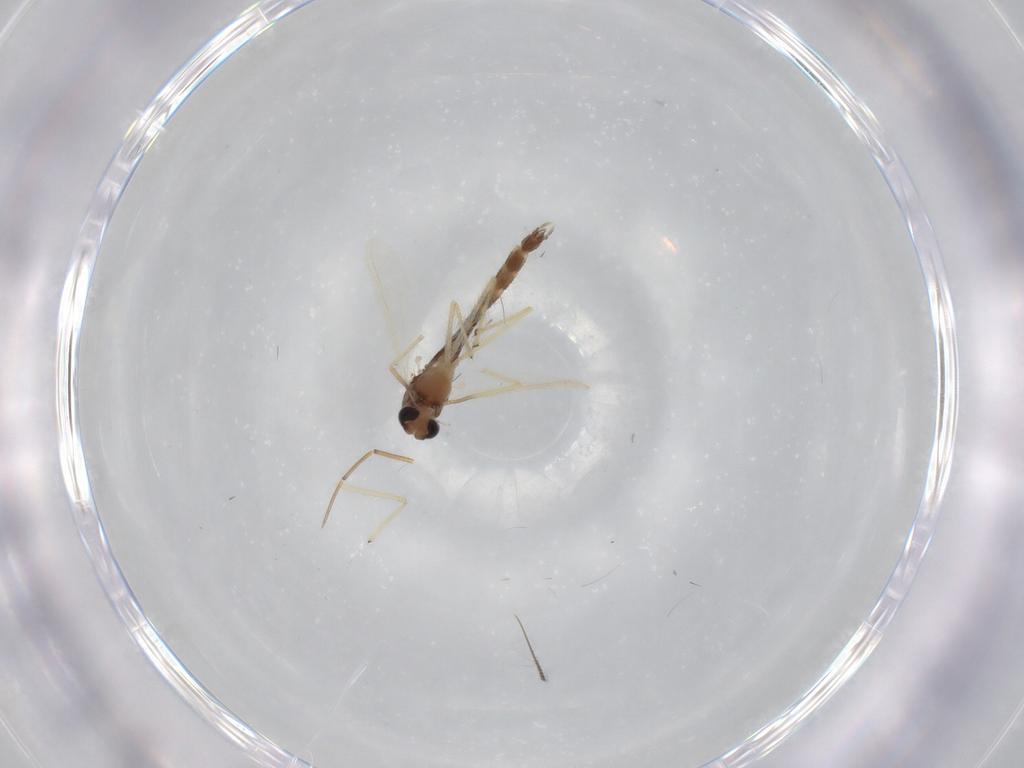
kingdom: Animalia
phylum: Arthropoda
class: Insecta
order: Diptera
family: Chironomidae
